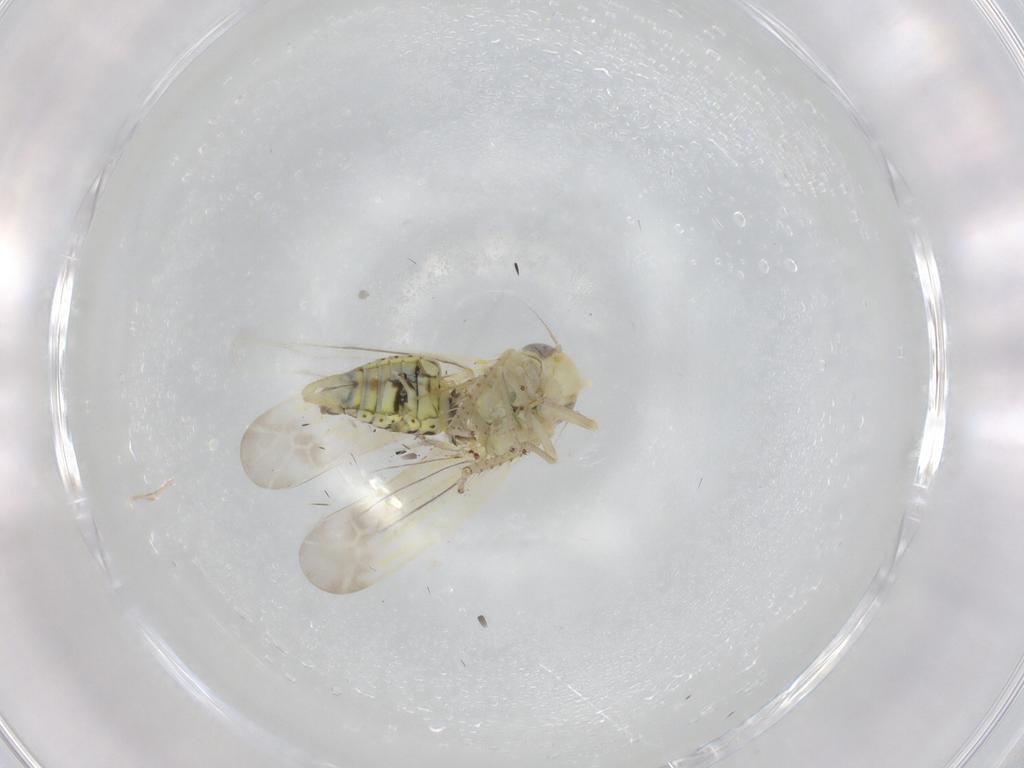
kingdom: Animalia
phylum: Arthropoda
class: Insecta
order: Hemiptera
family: Cicadellidae
